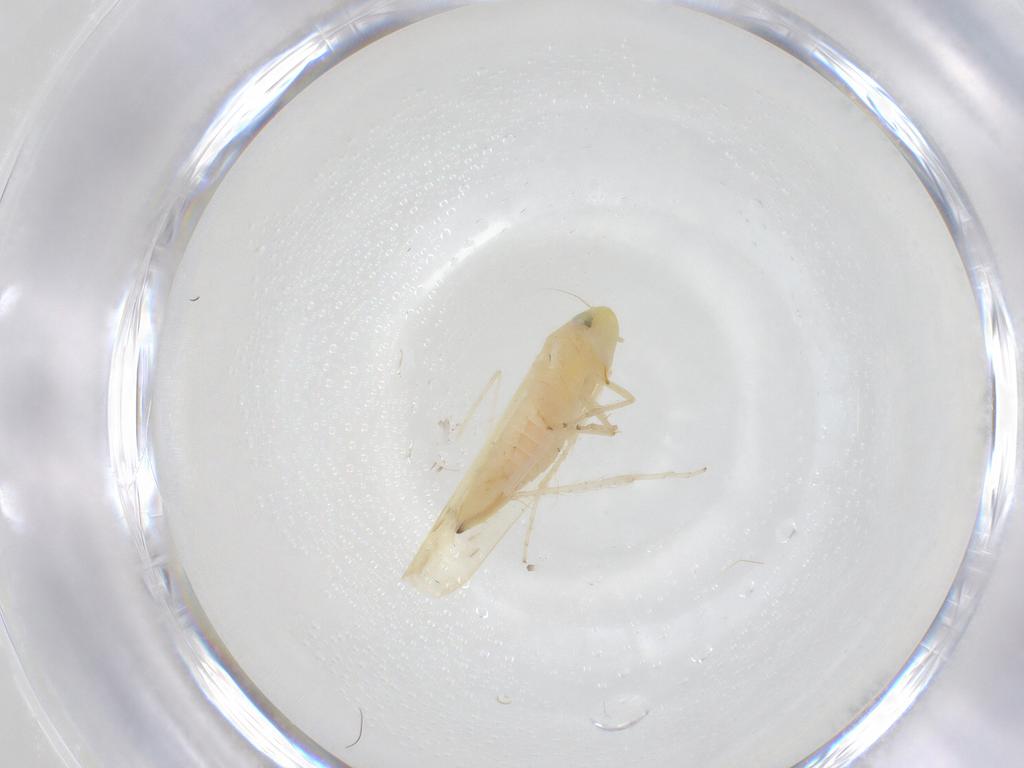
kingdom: Animalia
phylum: Arthropoda
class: Insecta
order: Hemiptera
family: Cicadellidae
